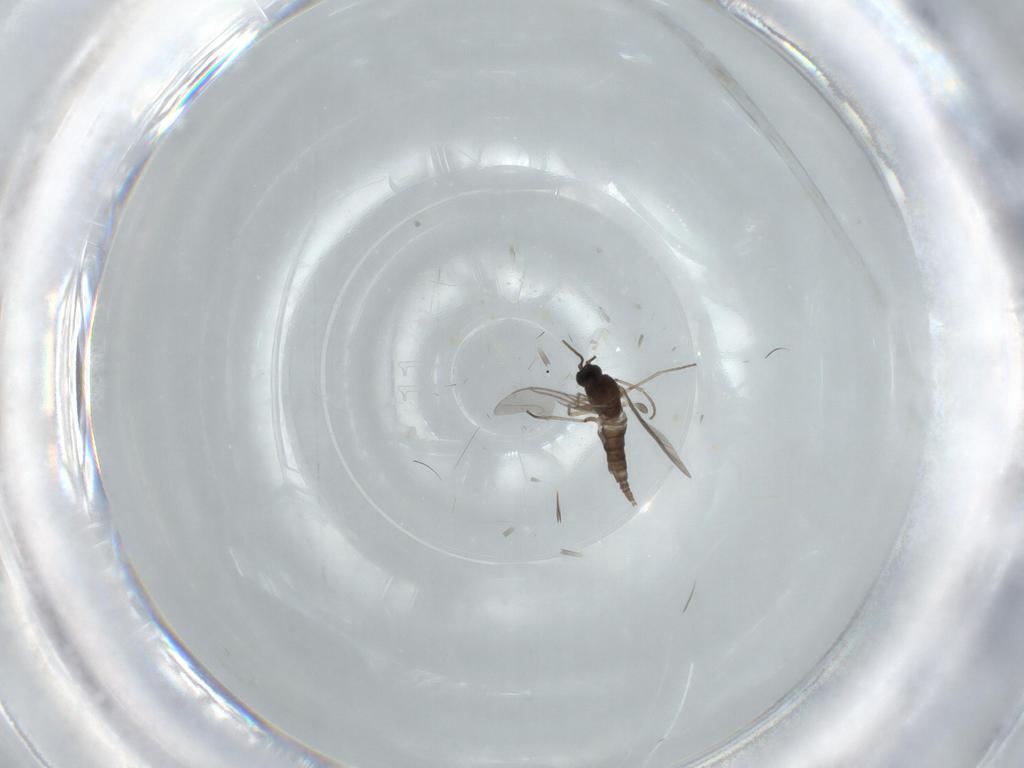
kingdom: Animalia
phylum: Arthropoda
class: Insecta
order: Diptera
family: Sciaridae
